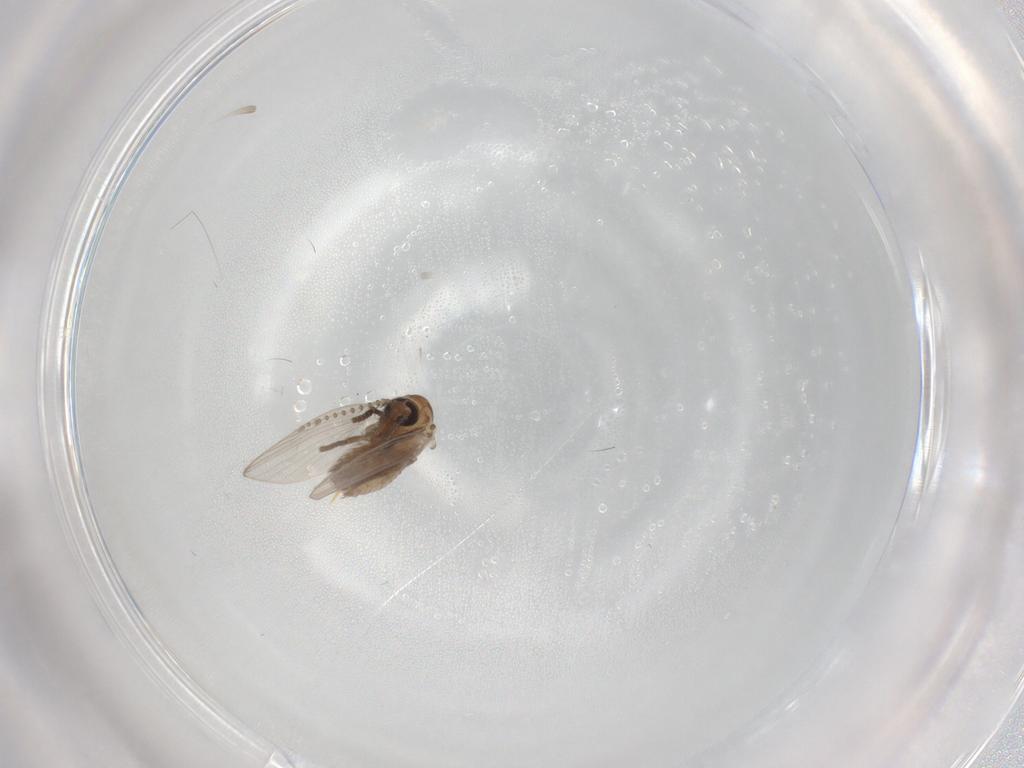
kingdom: Animalia
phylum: Arthropoda
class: Insecta
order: Diptera
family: Psychodidae
